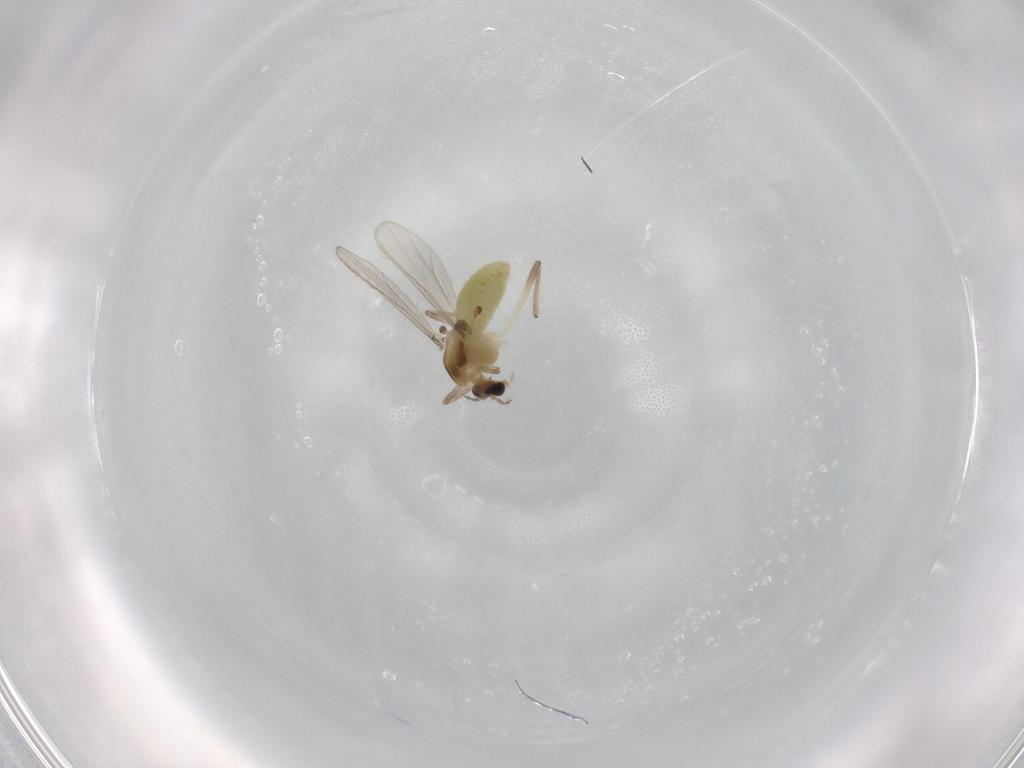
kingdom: Animalia
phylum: Arthropoda
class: Insecta
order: Diptera
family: Chironomidae
